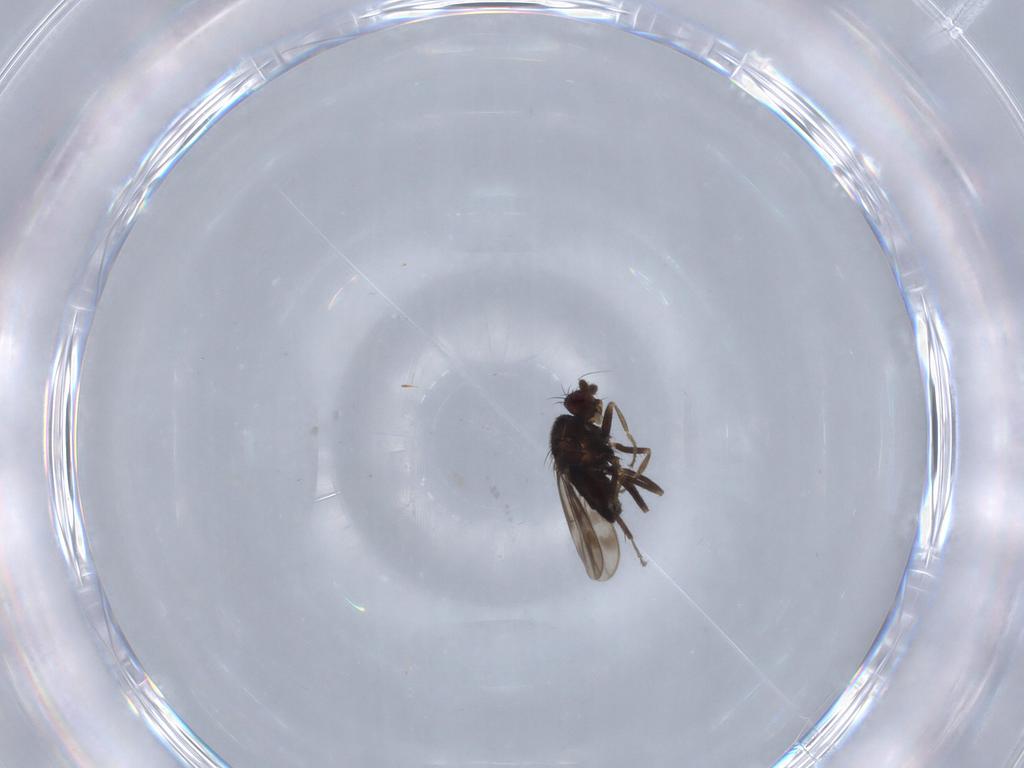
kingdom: Animalia
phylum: Arthropoda
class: Insecta
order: Diptera
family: Sphaeroceridae
